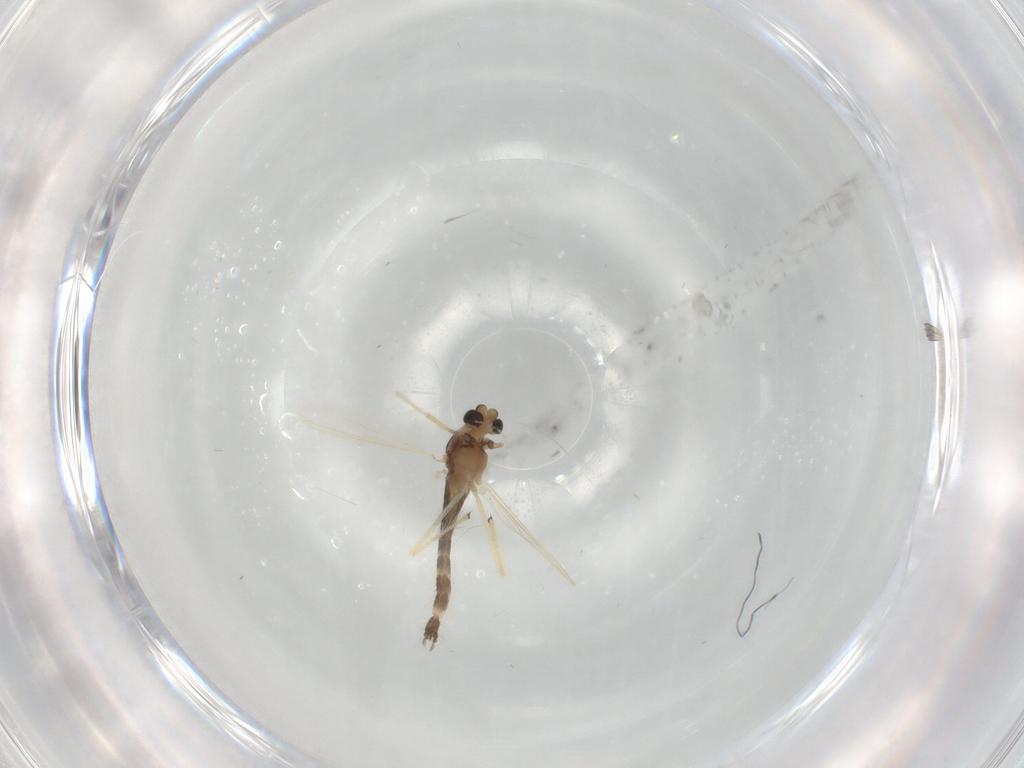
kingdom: Animalia
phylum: Arthropoda
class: Insecta
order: Diptera
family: Chironomidae
